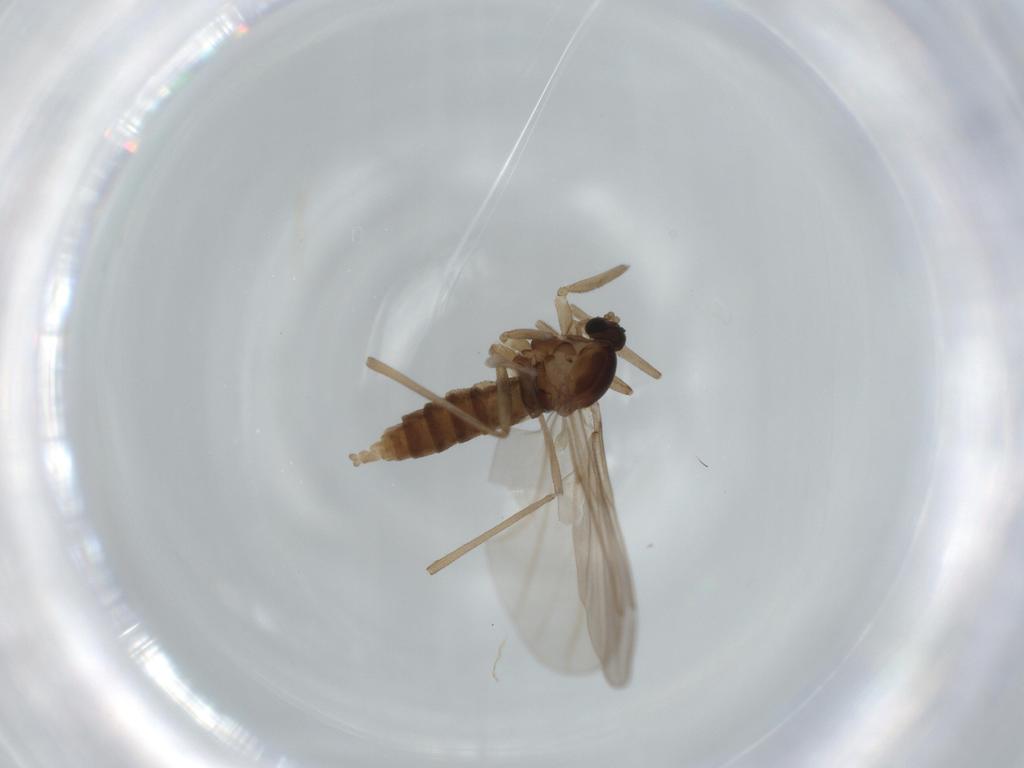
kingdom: Animalia
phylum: Arthropoda
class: Insecta
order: Diptera
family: Cecidomyiidae
